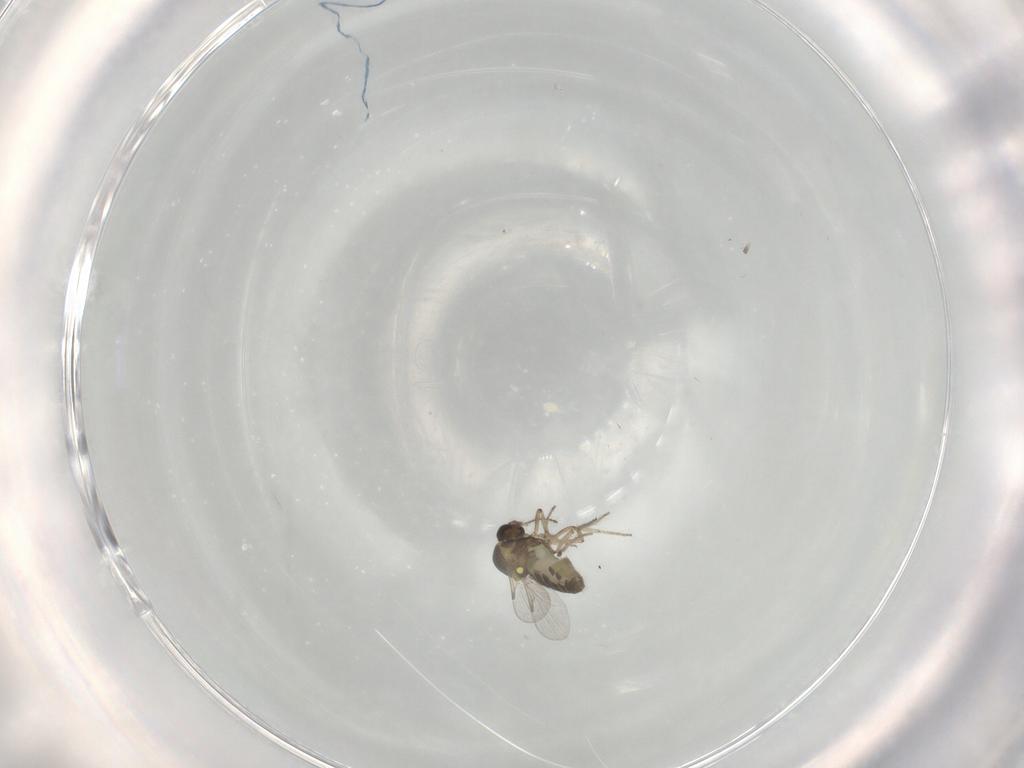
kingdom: Animalia
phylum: Arthropoda
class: Insecta
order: Diptera
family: Ceratopogonidae
